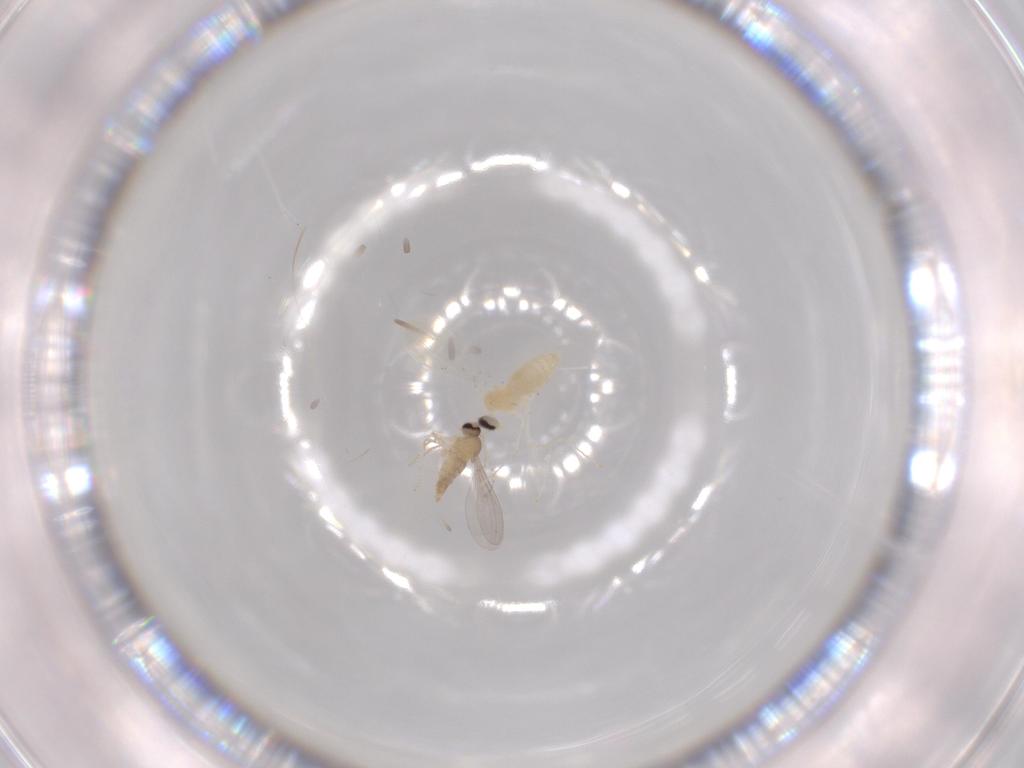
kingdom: Animalia
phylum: Arthropoda
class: Insecta
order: Diptera
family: Cecidomyiidae
